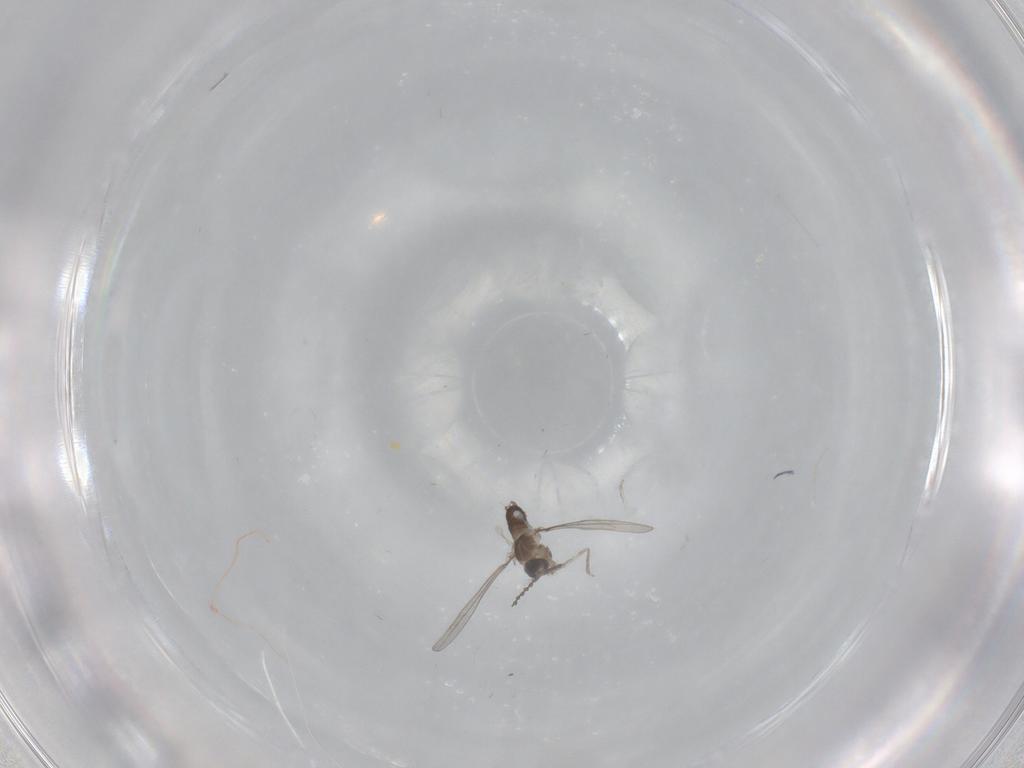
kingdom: Animalia
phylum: Arthropoda
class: Insecta
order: Diptera
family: Cecidomyiidae
